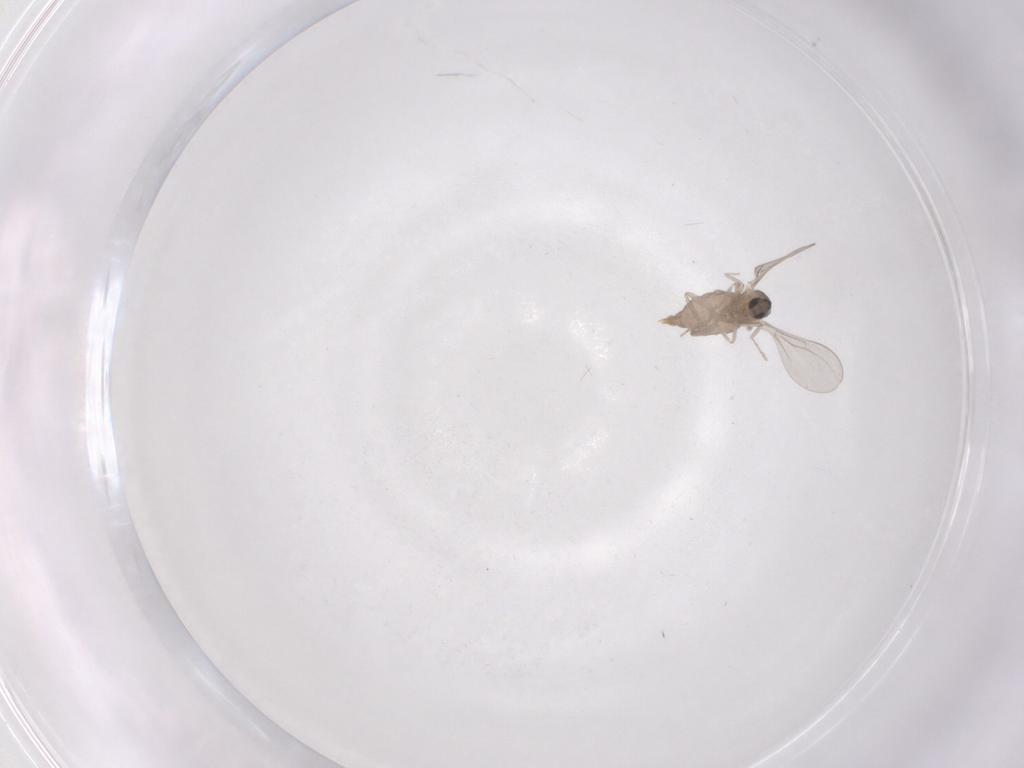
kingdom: Animalia
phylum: Arthropoda
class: Insecta
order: Diptera
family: Cecidomyiidae
